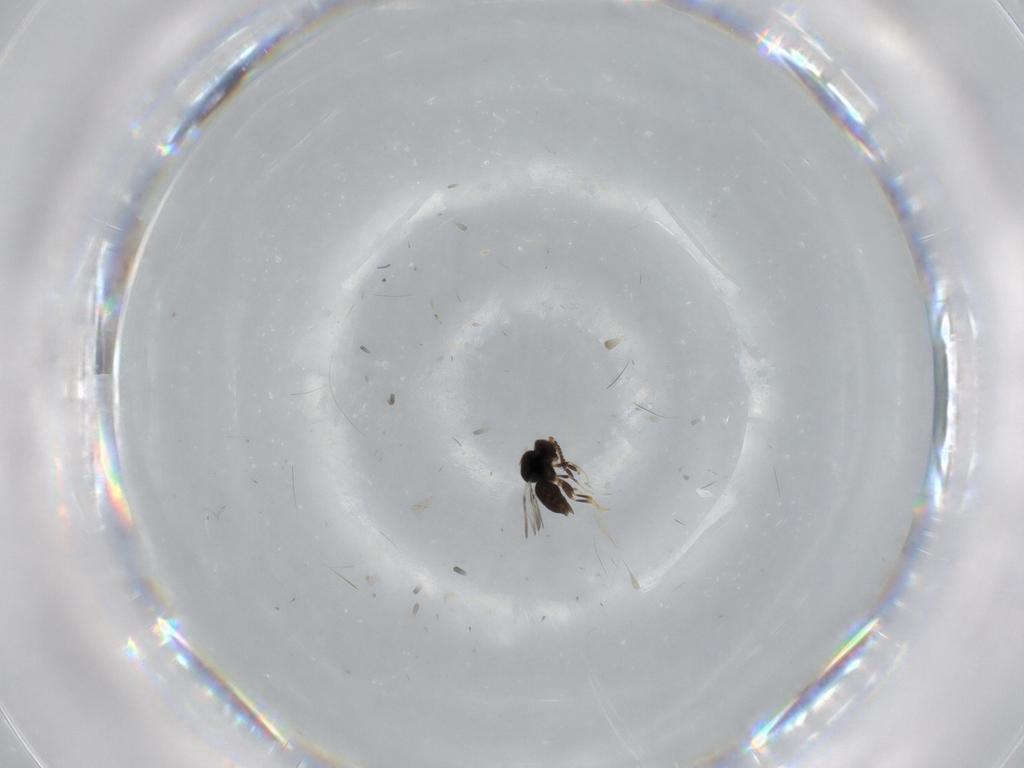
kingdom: Animalia
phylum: Arthropoda
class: Insecta
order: Hymenoptera
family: Ceraphronidae
